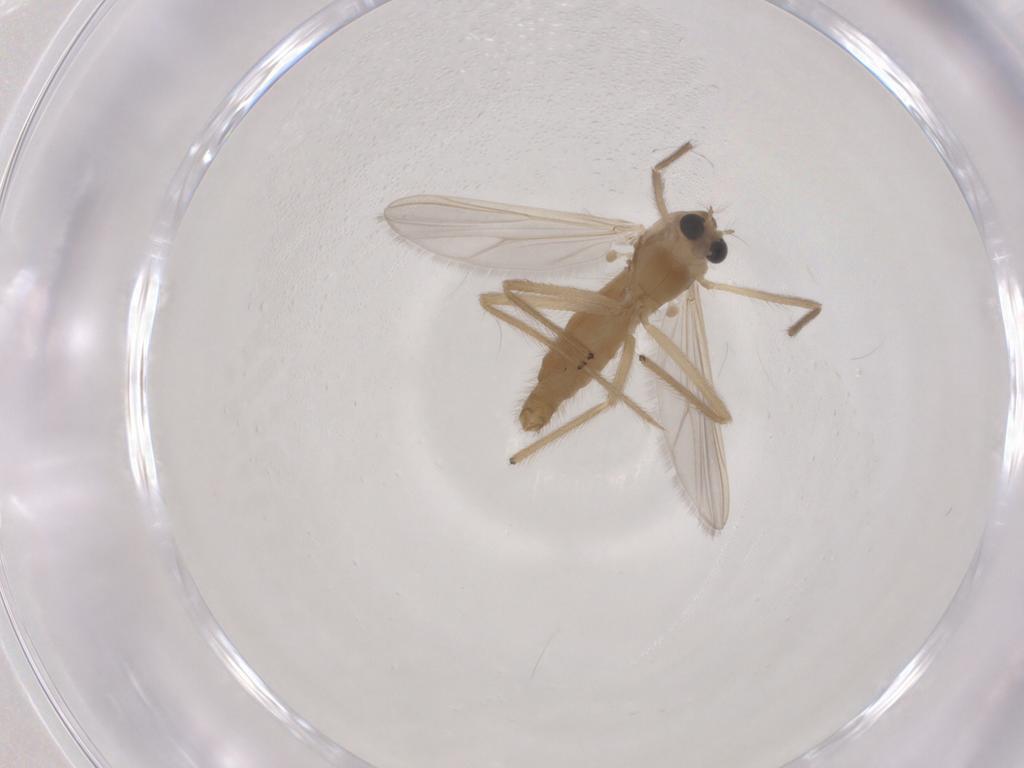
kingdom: Animalia
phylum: Arthropoda
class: Insecta
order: Diptera
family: Chironomidae
